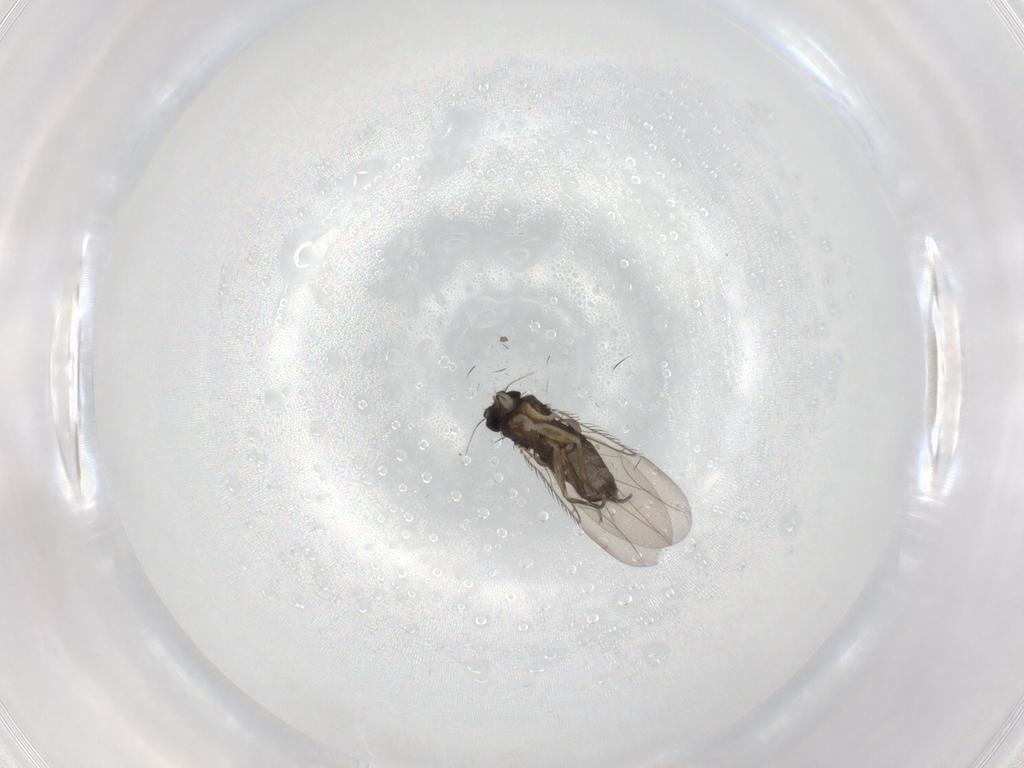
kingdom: Animalia
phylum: Arthropoda
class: Insecta
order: Diptera
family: Phoridae
